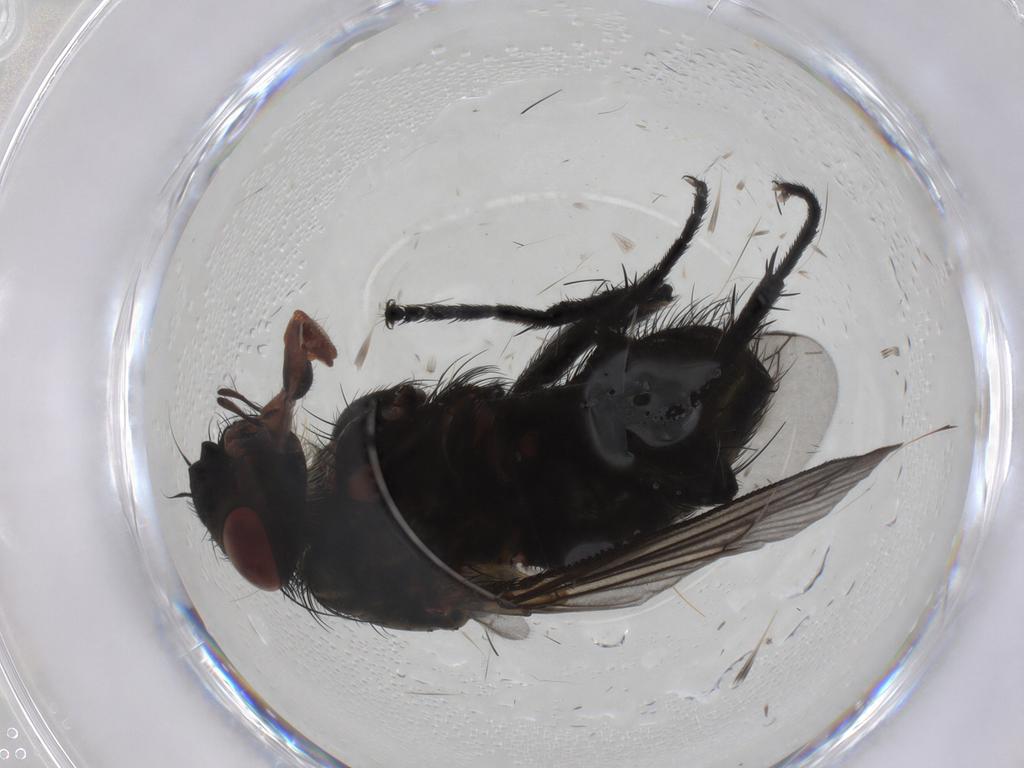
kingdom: Animalia
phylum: Arthropoda
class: Insecta
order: Diptera
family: Tachinidae
